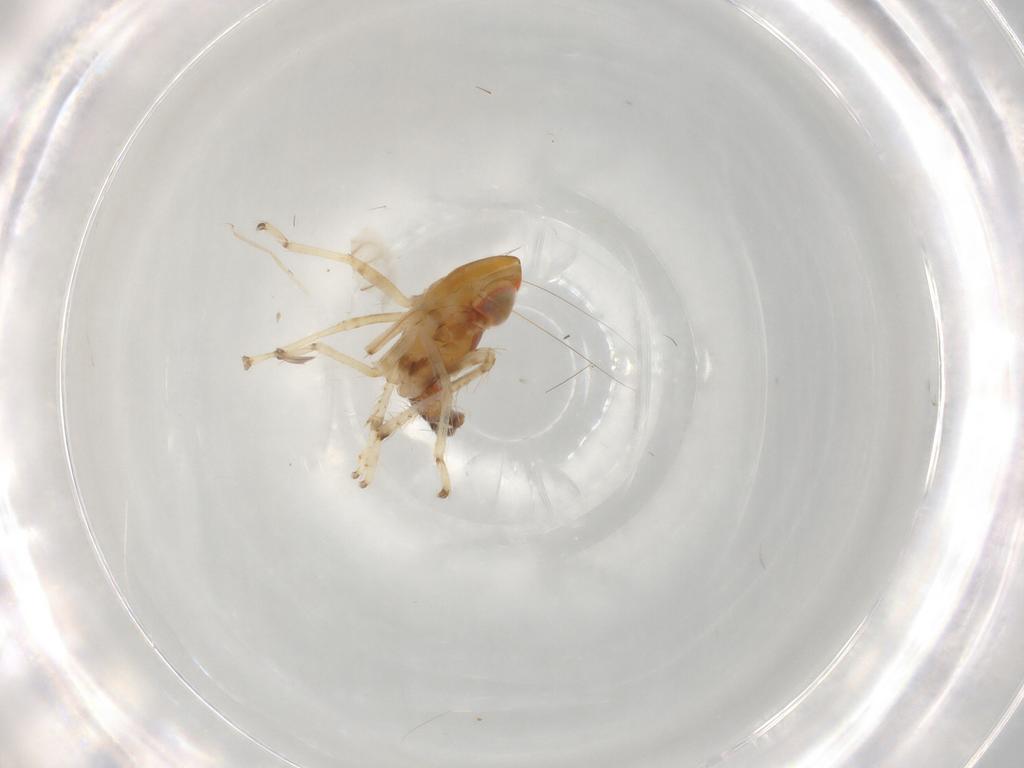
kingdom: Animalia
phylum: Arthropoda
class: Insecta
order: Hemiptera
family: Cicadellidae
